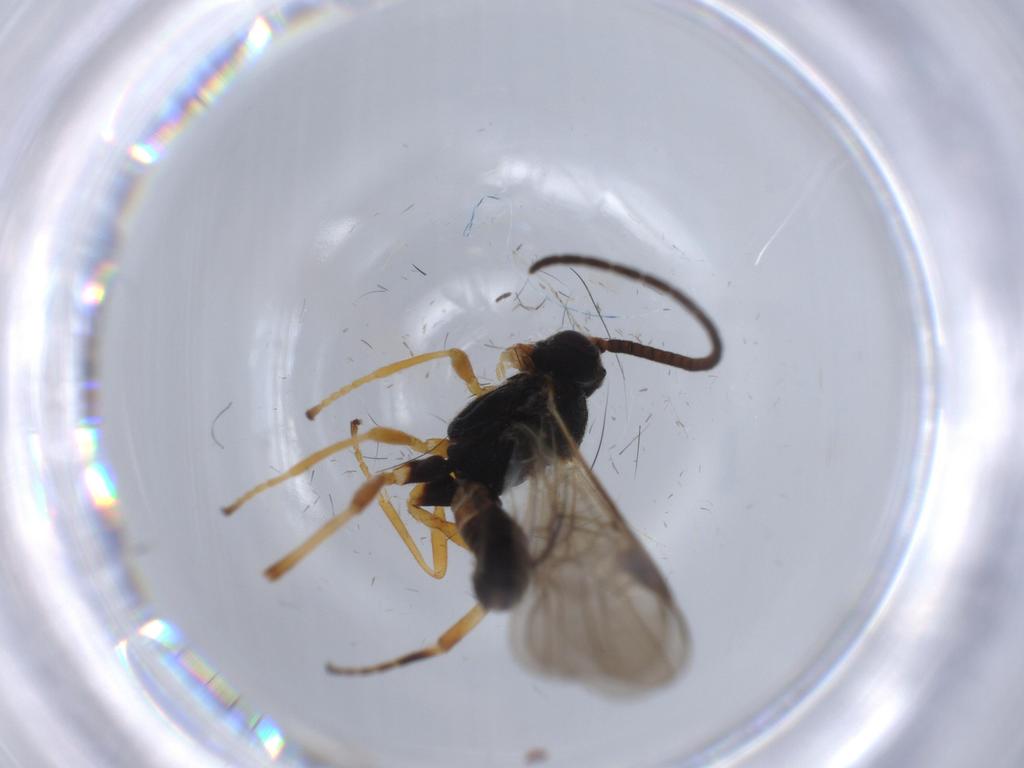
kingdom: Animalia
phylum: Arthropoda
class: Insecta
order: Hymenoptera
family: Braconidae
